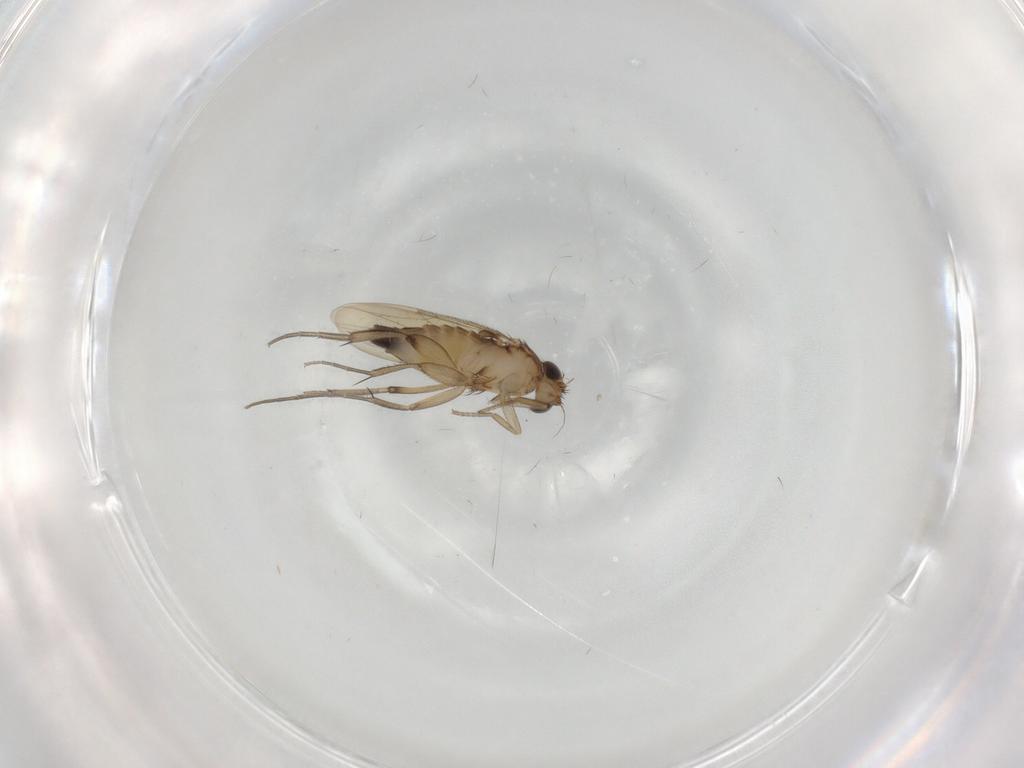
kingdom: Animalia
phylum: Arthropoda
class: Insecta
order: Diptera
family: Phoridae
